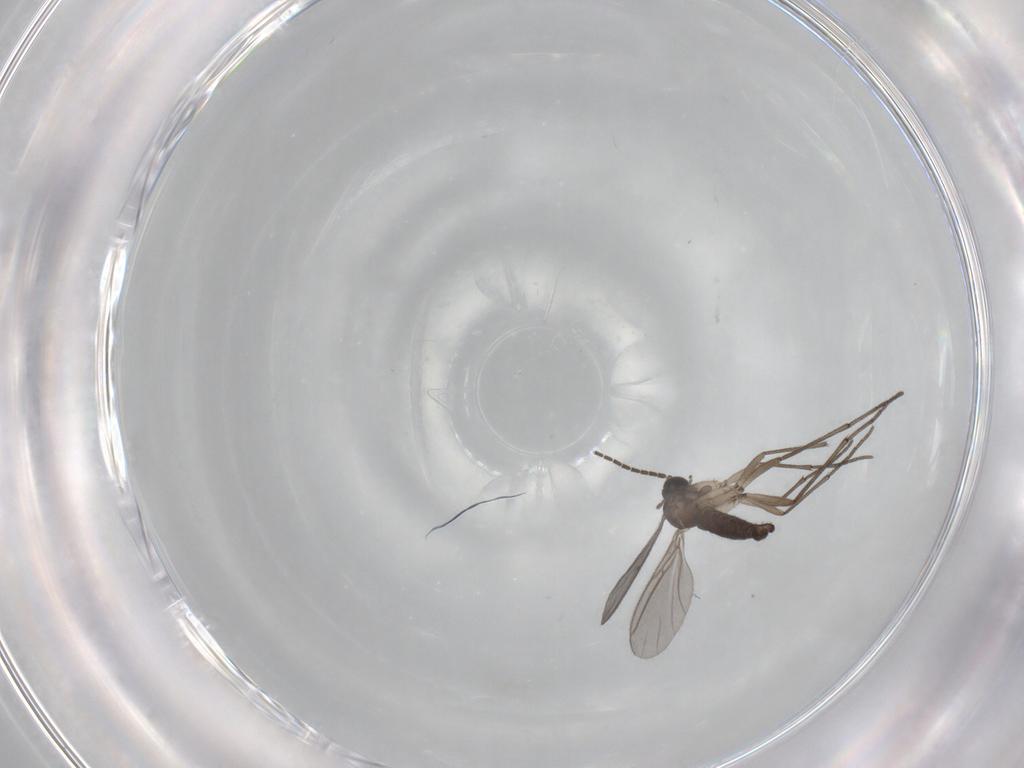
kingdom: Animalia
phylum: Arthropoda
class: Insecta
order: Diptera
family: Sciaridae
